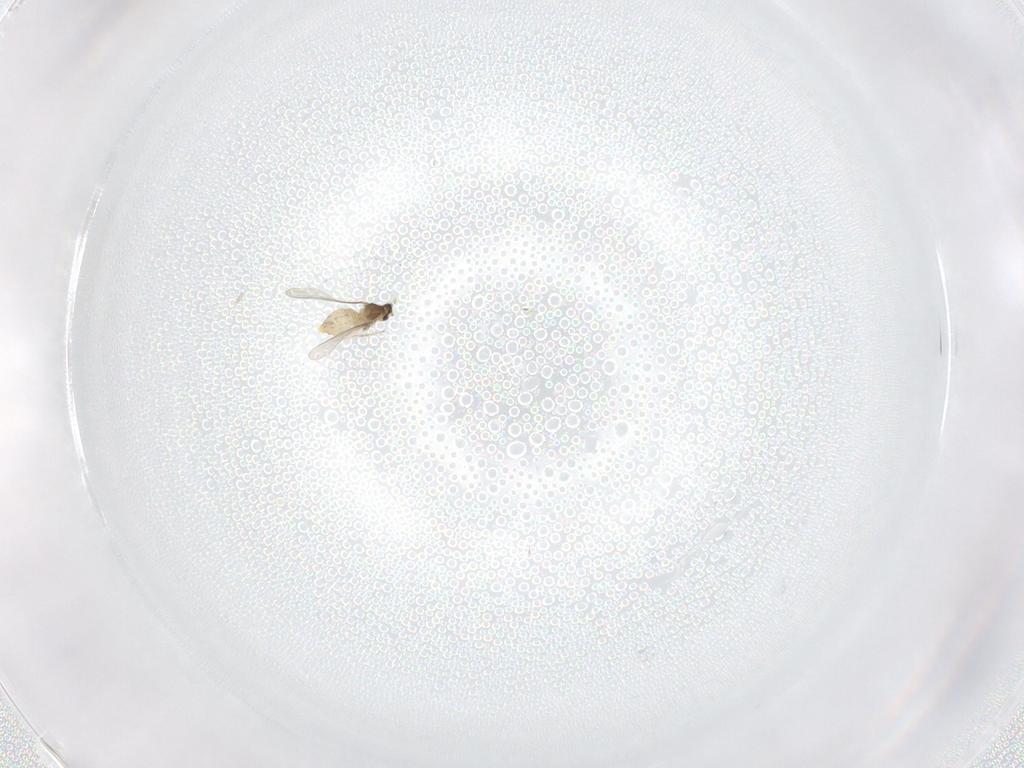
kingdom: Animalia
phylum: Arthropoda
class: Insecta
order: Diptera
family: Cecidomyiidae
